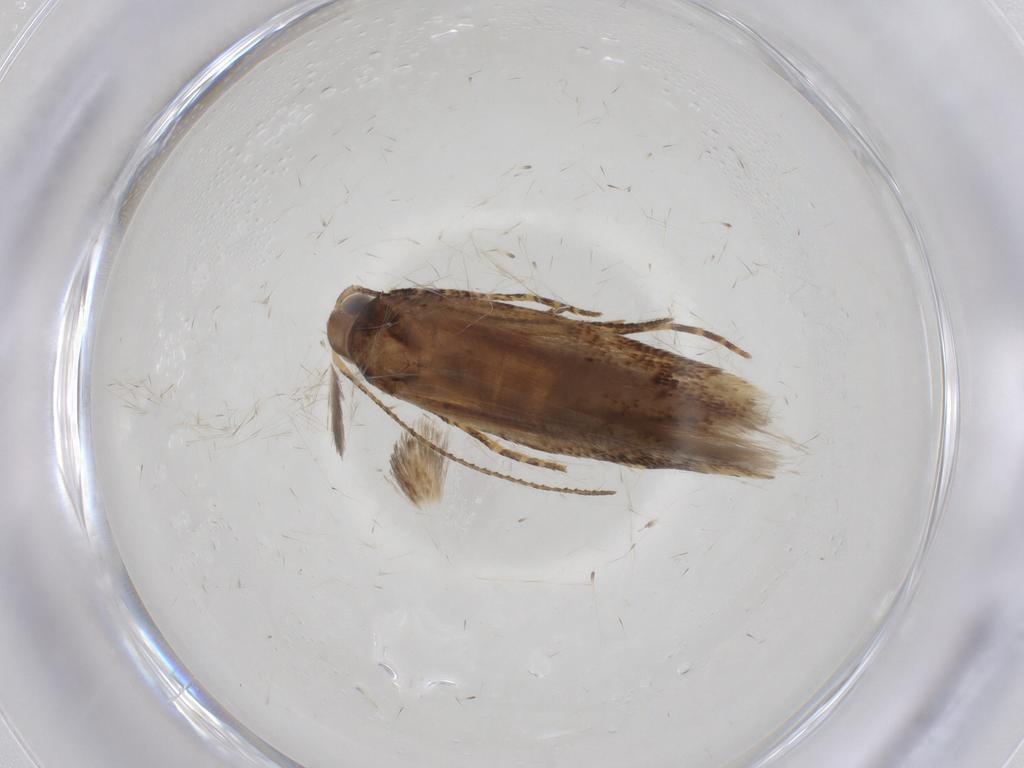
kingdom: Animalia
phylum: Arthropoda
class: Insecta
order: Lepidoptera
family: Gelechiidae
